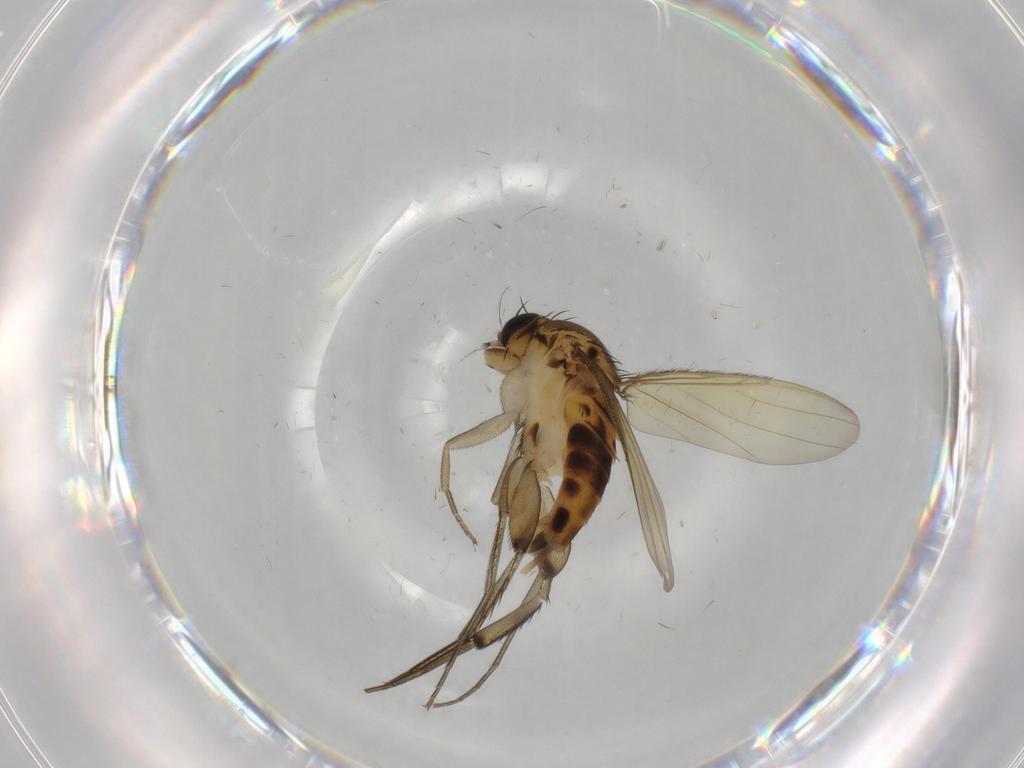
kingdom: Animalia
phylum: Arthropoda
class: Insecta
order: Diptera
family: Phoridae
